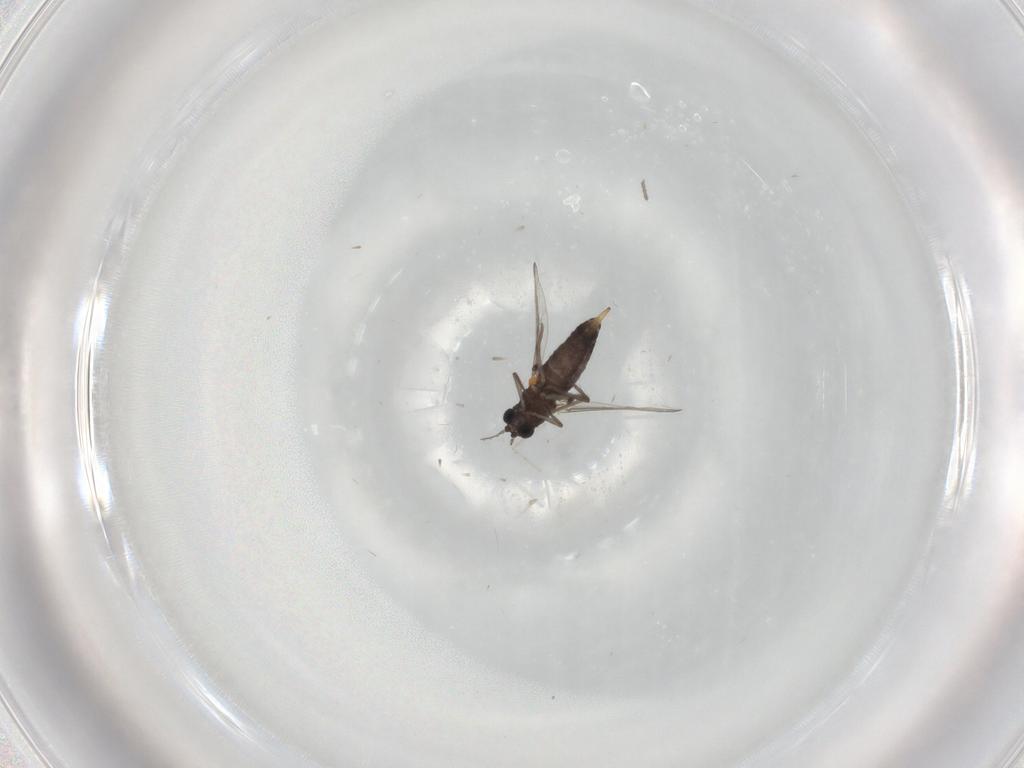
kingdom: Animalia
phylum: Arthropoda
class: Insecta
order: Diptera
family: Chironomidae
